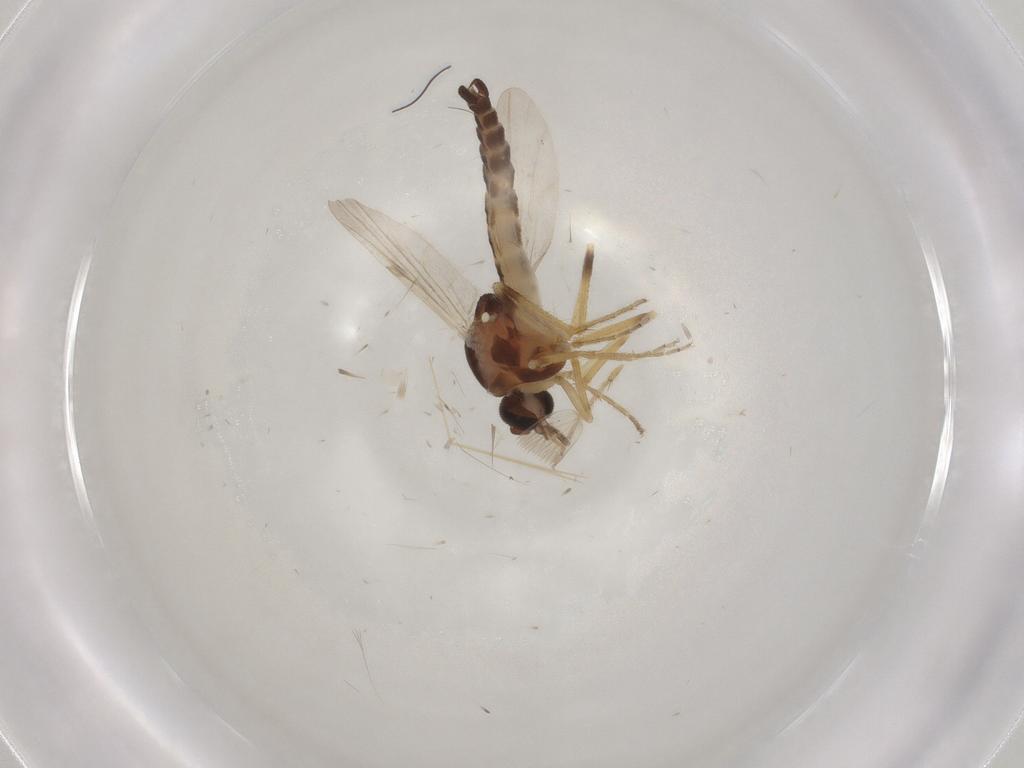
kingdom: Animalia
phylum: Arthropoda
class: Insecta
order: Diptera
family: Ceratopogonidae
